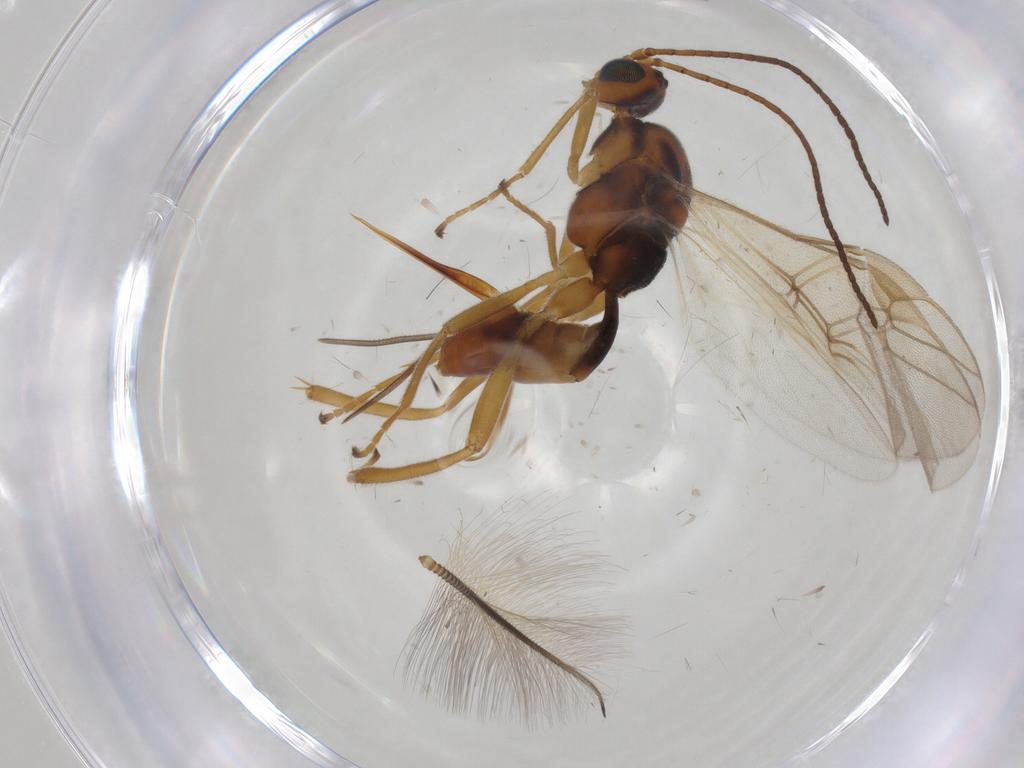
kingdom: Animalia
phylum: Arthropoda
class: Insecta
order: Hymenoptera
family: Braconidae
